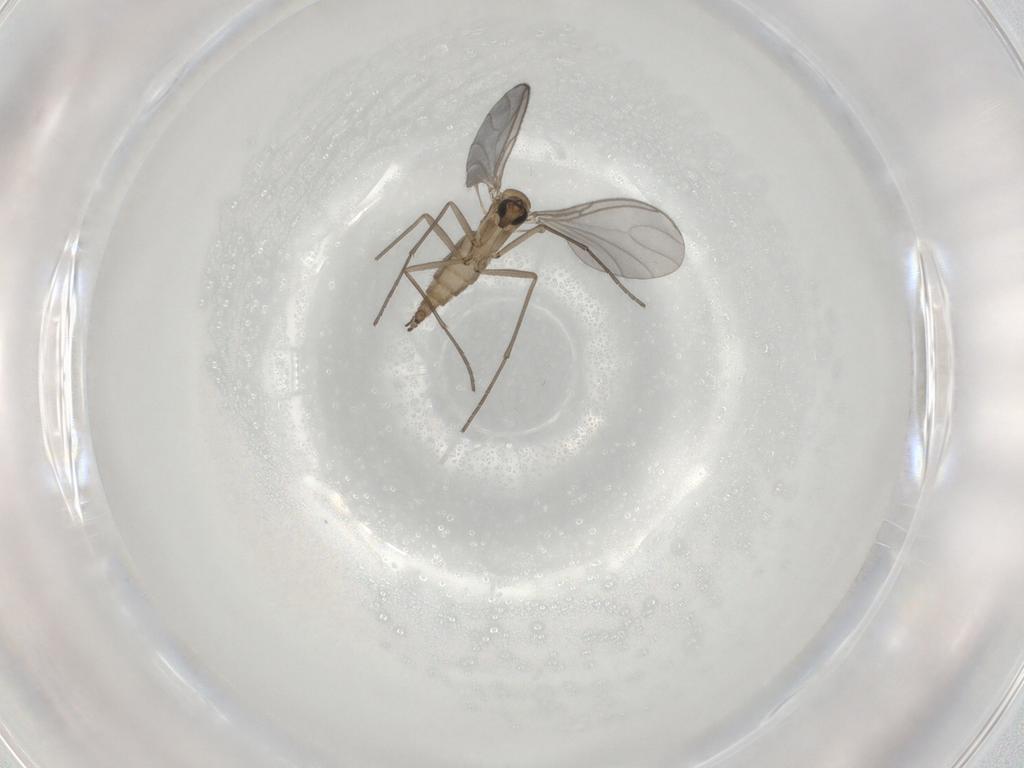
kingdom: Animalia
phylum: Arthropoda
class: Insecta
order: Diptera
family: Sciaridae
